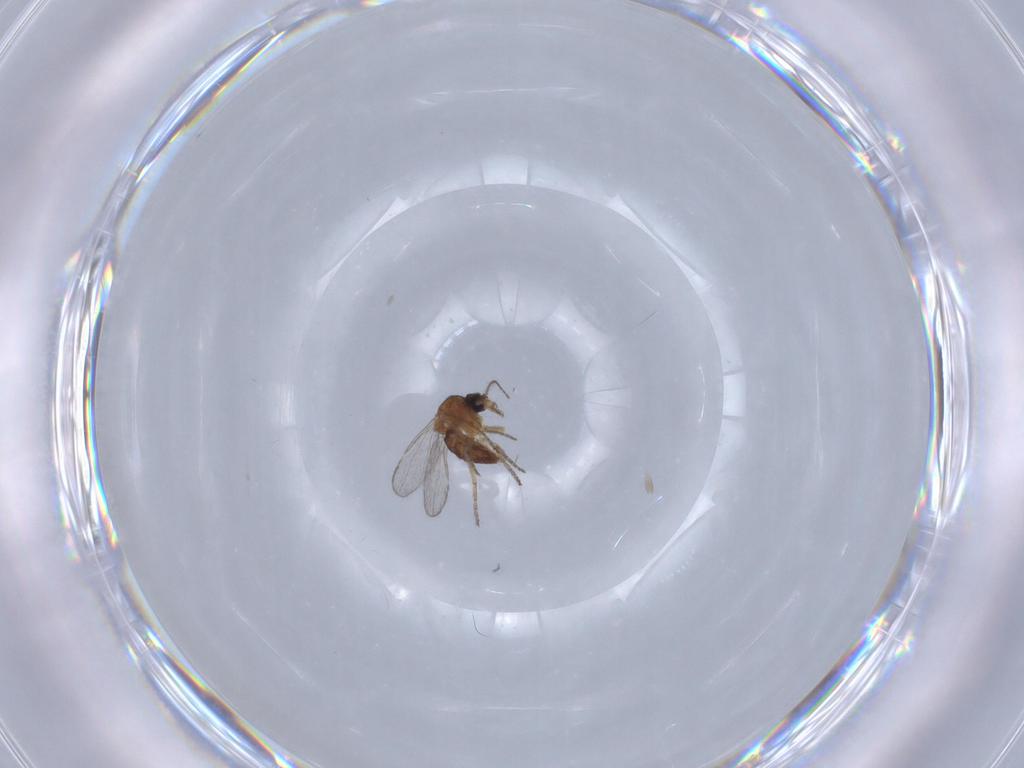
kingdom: Animalia
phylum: Arthropoda
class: Insecta
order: Diptera
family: Ceratopogonidae
